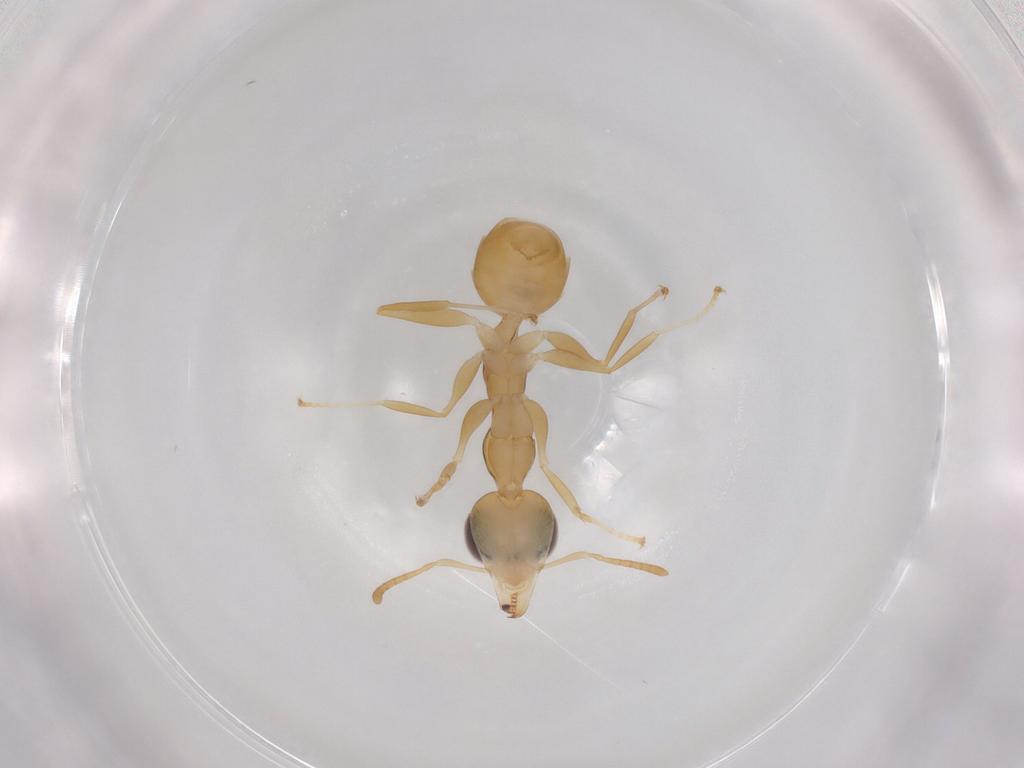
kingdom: Animalia
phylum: Arthropoda
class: Insecta
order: Hymenoptera
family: Formicidae
